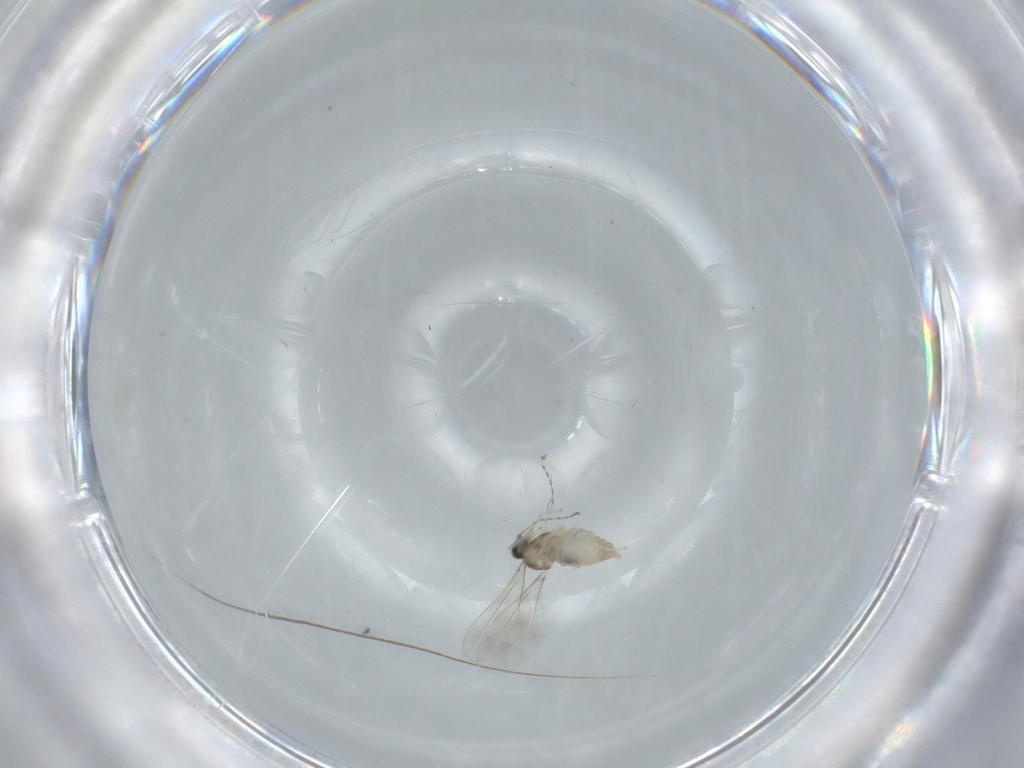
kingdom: Animalia
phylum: Arthropoda
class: Insecta
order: Diptera
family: Cecidomyiidae
